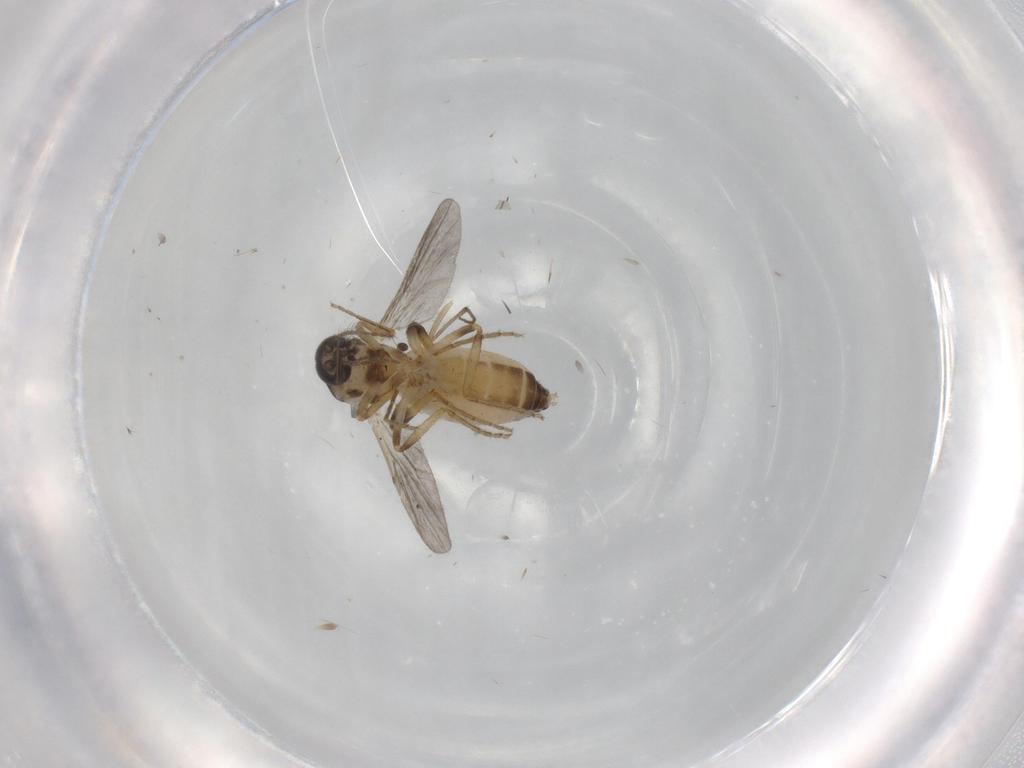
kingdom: Animalia
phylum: Arthropoda
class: Insecta
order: Diptera
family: Ceratopogonidae
